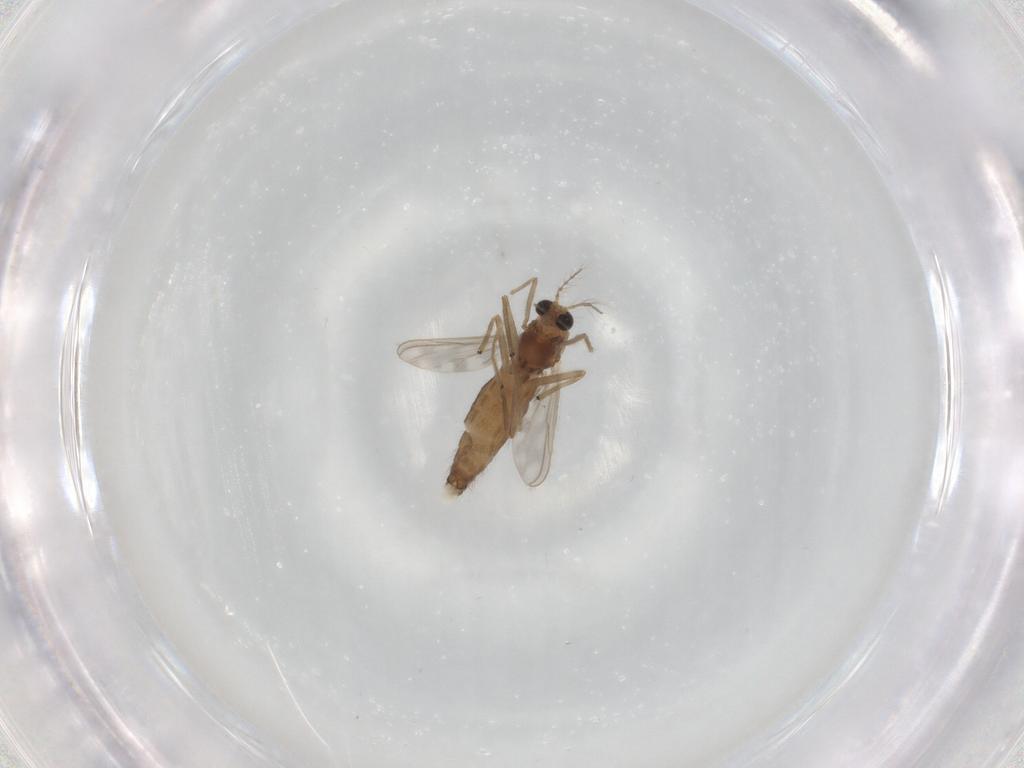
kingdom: Animalia
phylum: Arthropoda
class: Insecta
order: Diptera
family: Chironomidae
